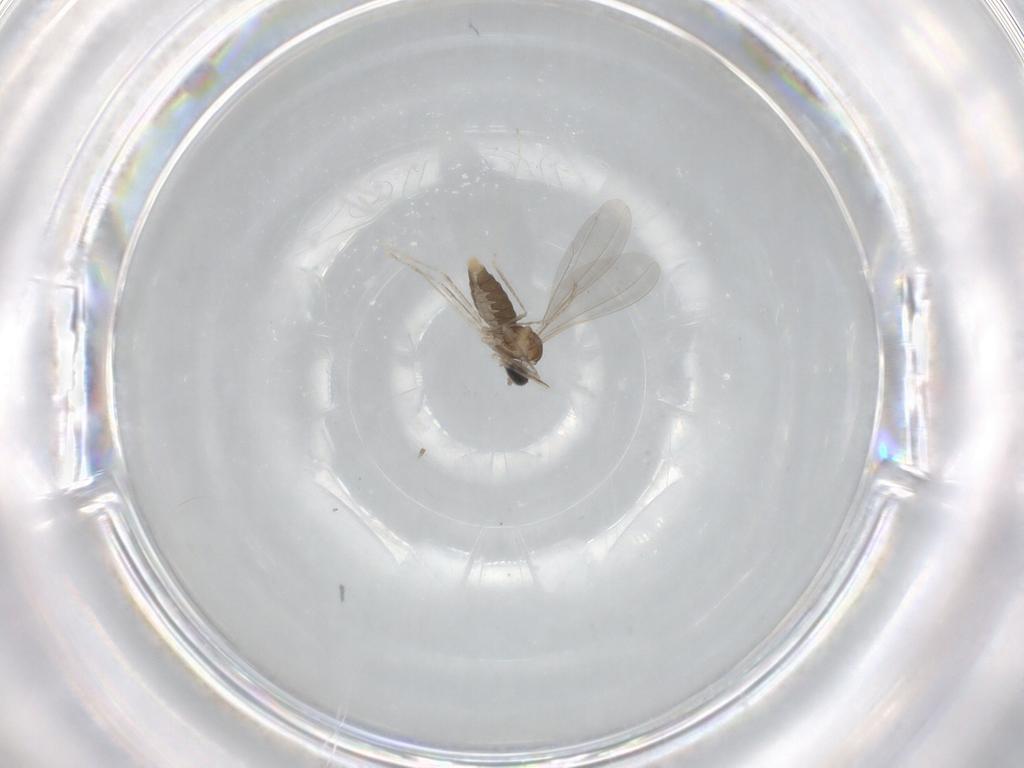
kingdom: Animalia
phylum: Arthropoda
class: Insecta
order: Diptera
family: Cecidomyiidae
